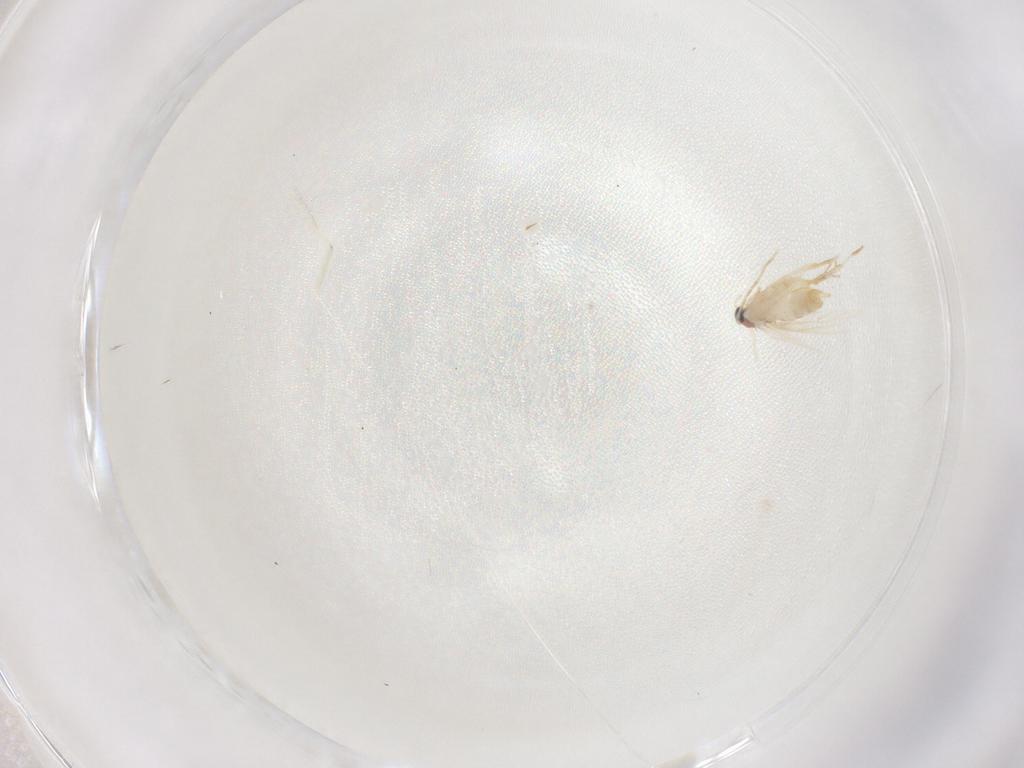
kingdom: Animalia
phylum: Arthropoda
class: Insecta
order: Lepidoptera
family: Nepticulidae
